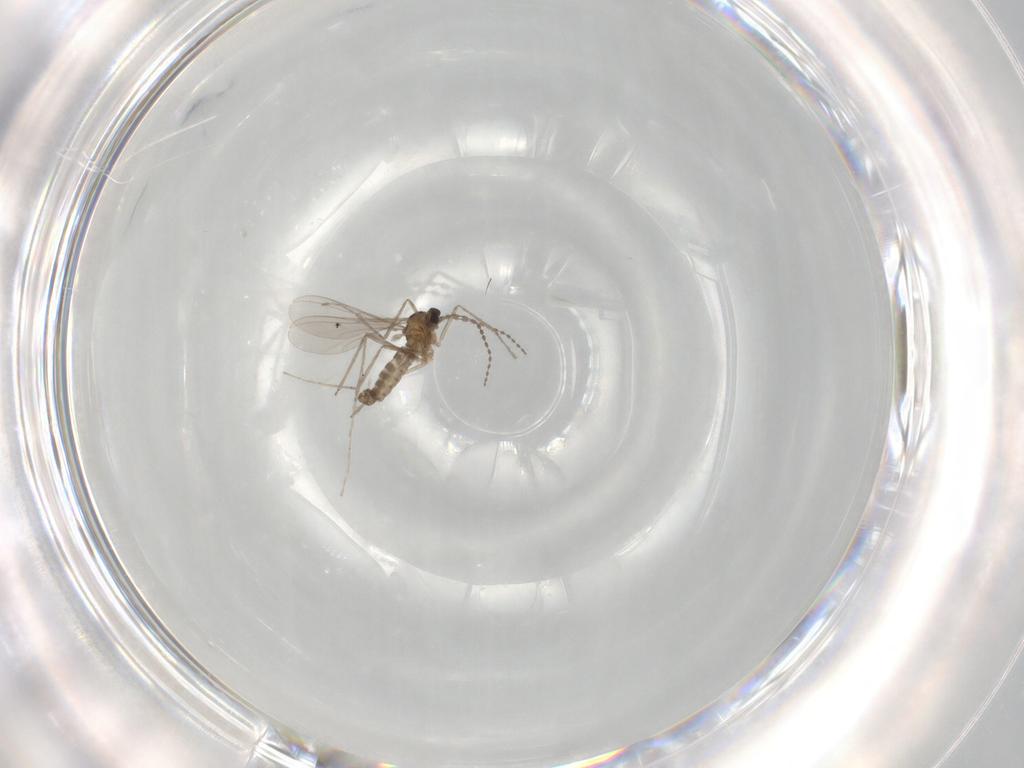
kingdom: Animalia
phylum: Arthropoda
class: Insecta
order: Diptera
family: Cecidomyiidae
